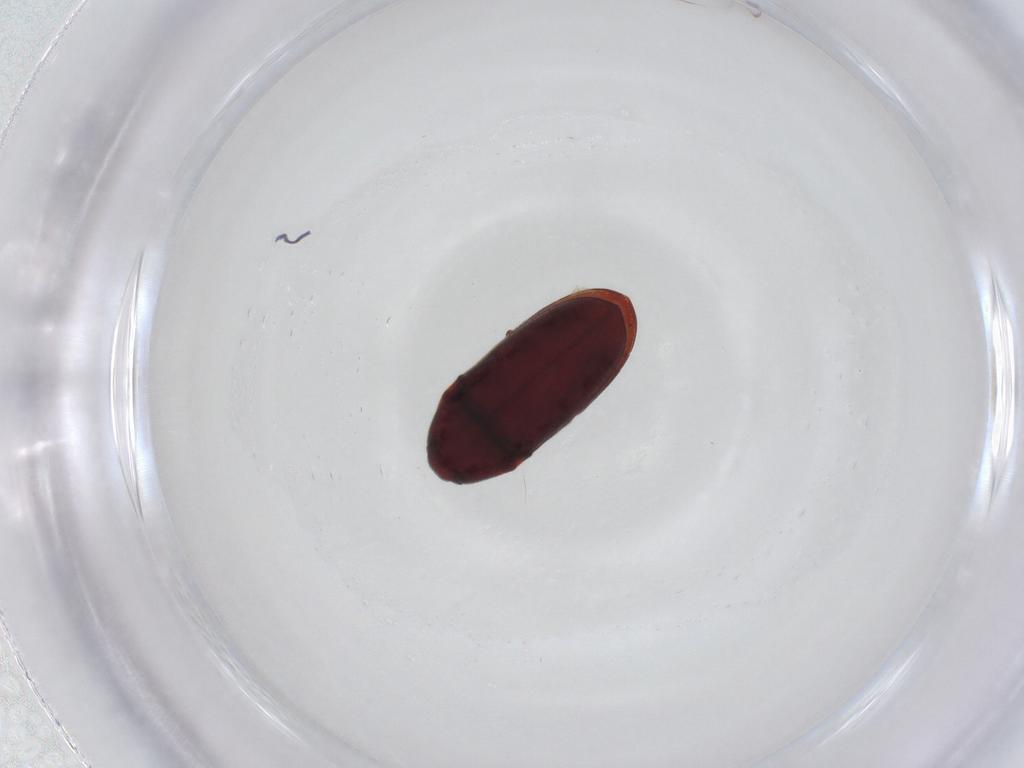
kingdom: Animalia
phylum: Arthropoda
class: Insecta
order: Coleoptera
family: Throscidae
